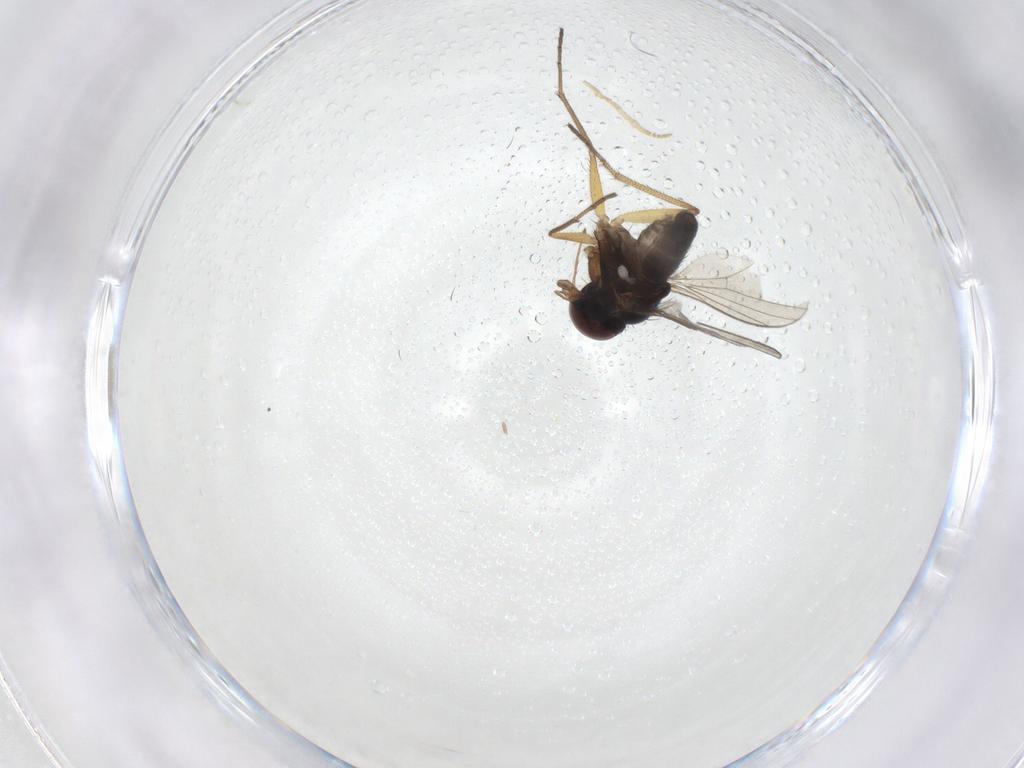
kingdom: Animalia
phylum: Arthropoda
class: Insecta
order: Diptera
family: Dolichopodidae
